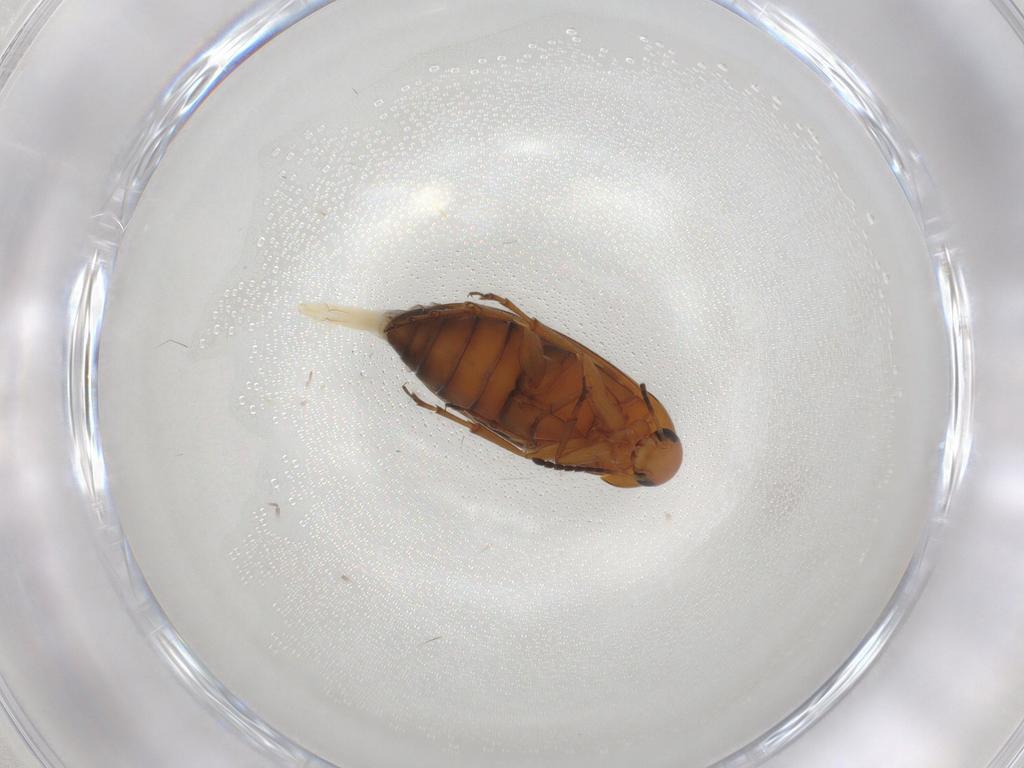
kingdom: Animalia
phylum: Arthropoda
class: Insecta
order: Coleoptera
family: Scraptiidae
